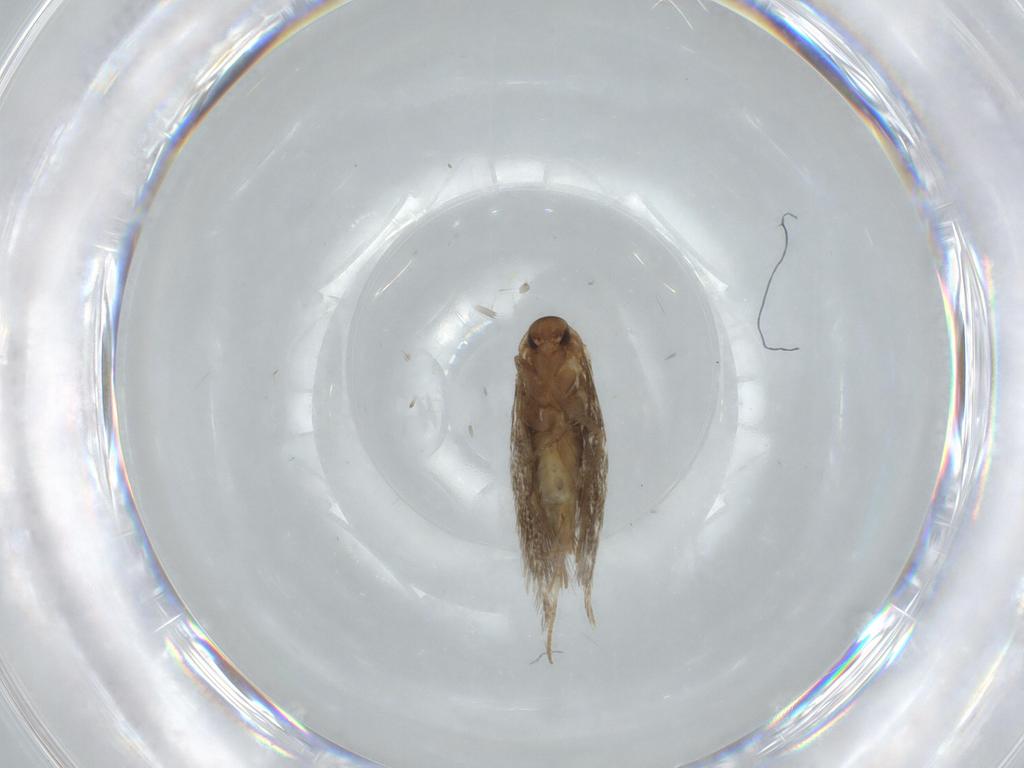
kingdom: Animalia
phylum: Arthropoda
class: Insecta
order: Lepidoptera
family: Elachistidae
